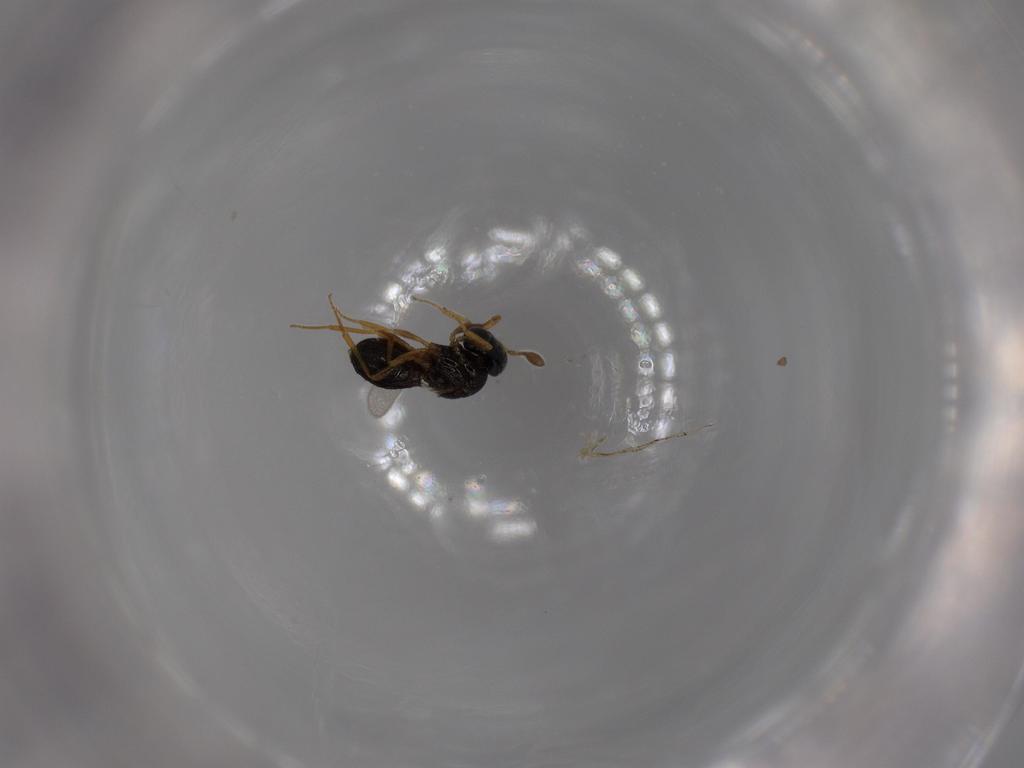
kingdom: Animalia
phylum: Arthropoda
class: Insecta
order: Hymenoptera
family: Scelionidae
